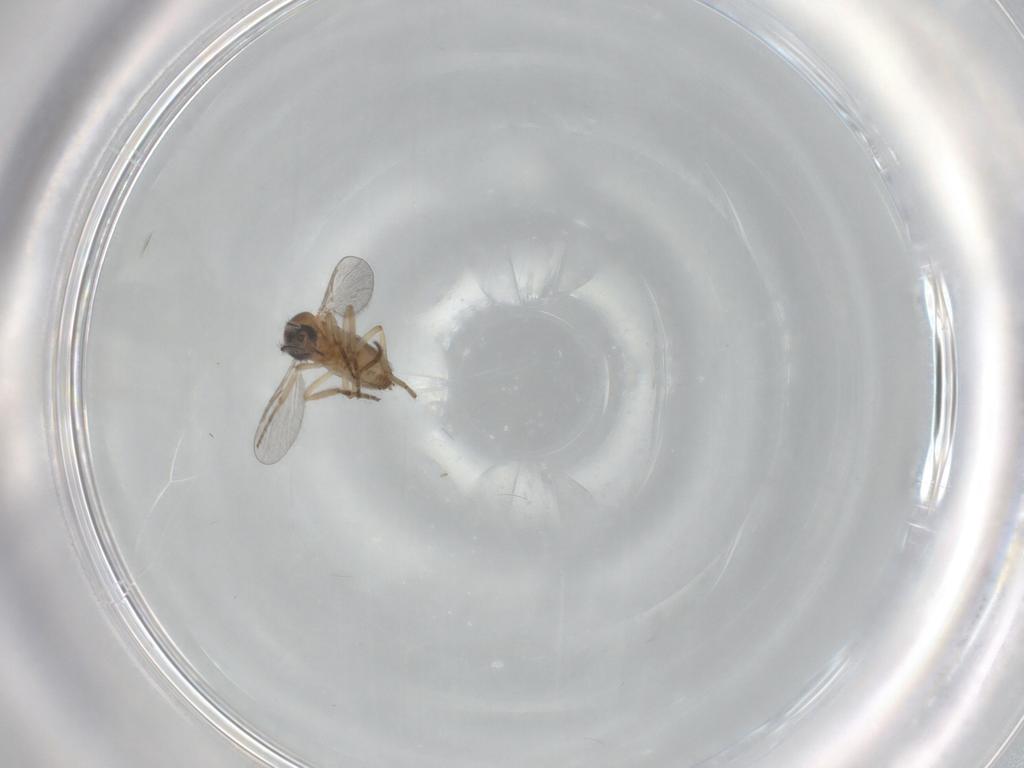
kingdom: Animalia
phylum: Arthropoda
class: Insecta
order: Diptera
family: Ceratopogonidae
